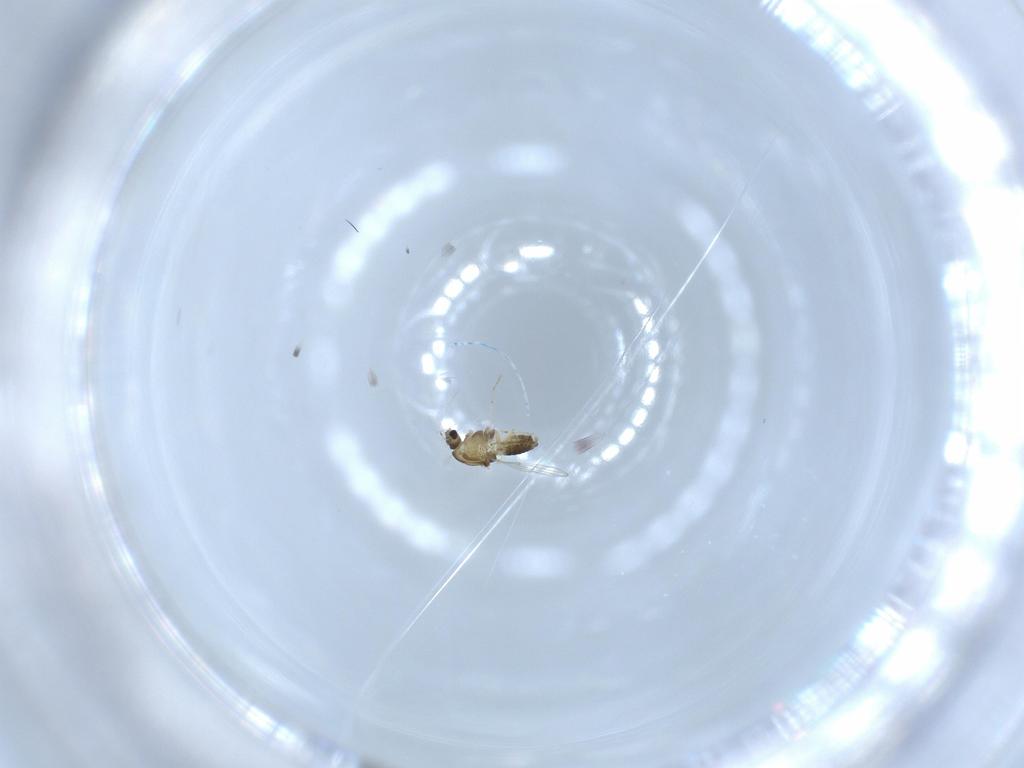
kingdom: Animalia
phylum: Arthropoda
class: Insecta
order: Diptera
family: Chironomidae
